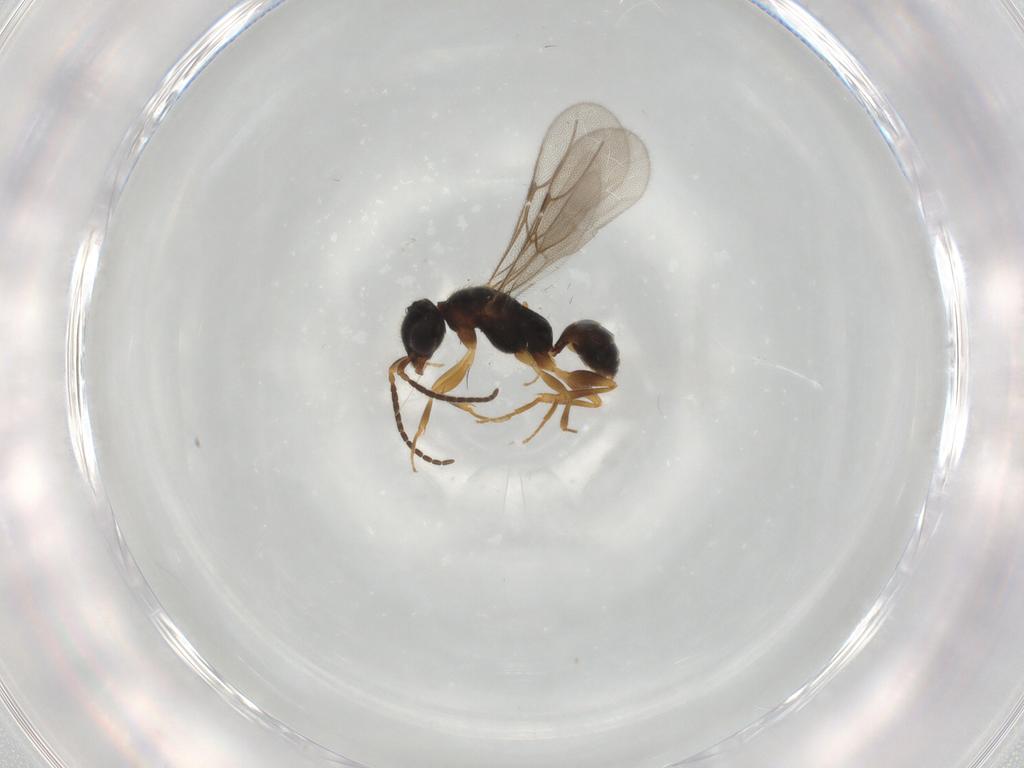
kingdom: Animalia
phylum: Arthropoda
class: Insecta
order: Hymenoptera
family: Bethylidae
